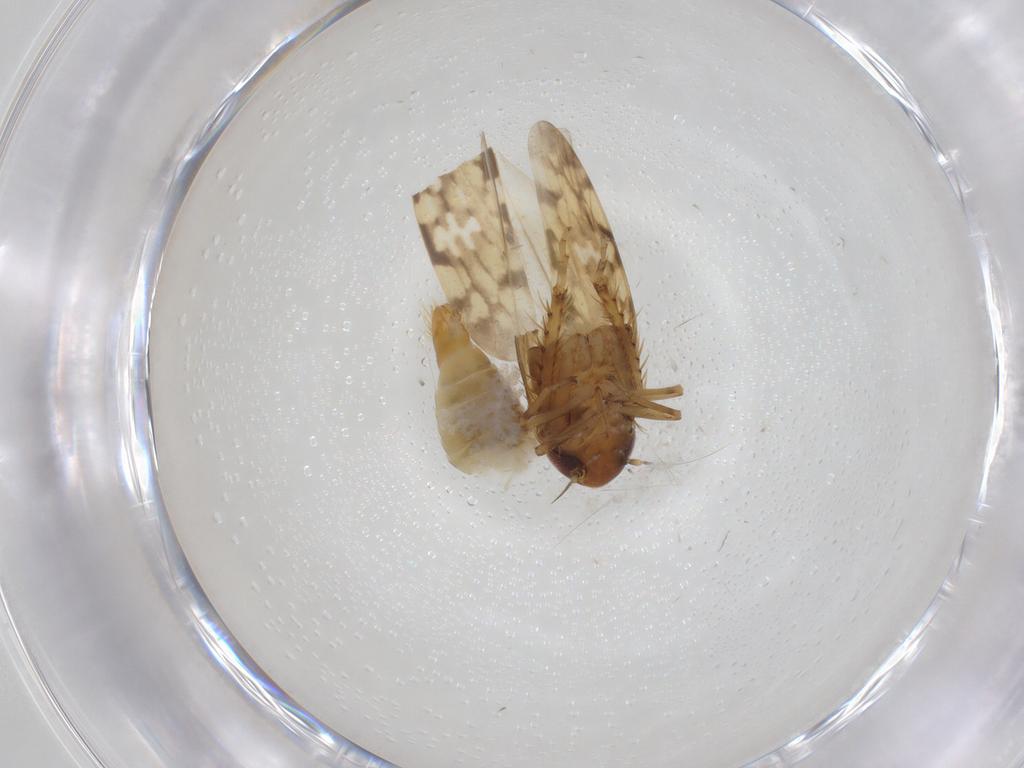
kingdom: Animalia
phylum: Arthropoda
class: Insecta
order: Hemiptera
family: Cicadellidae
